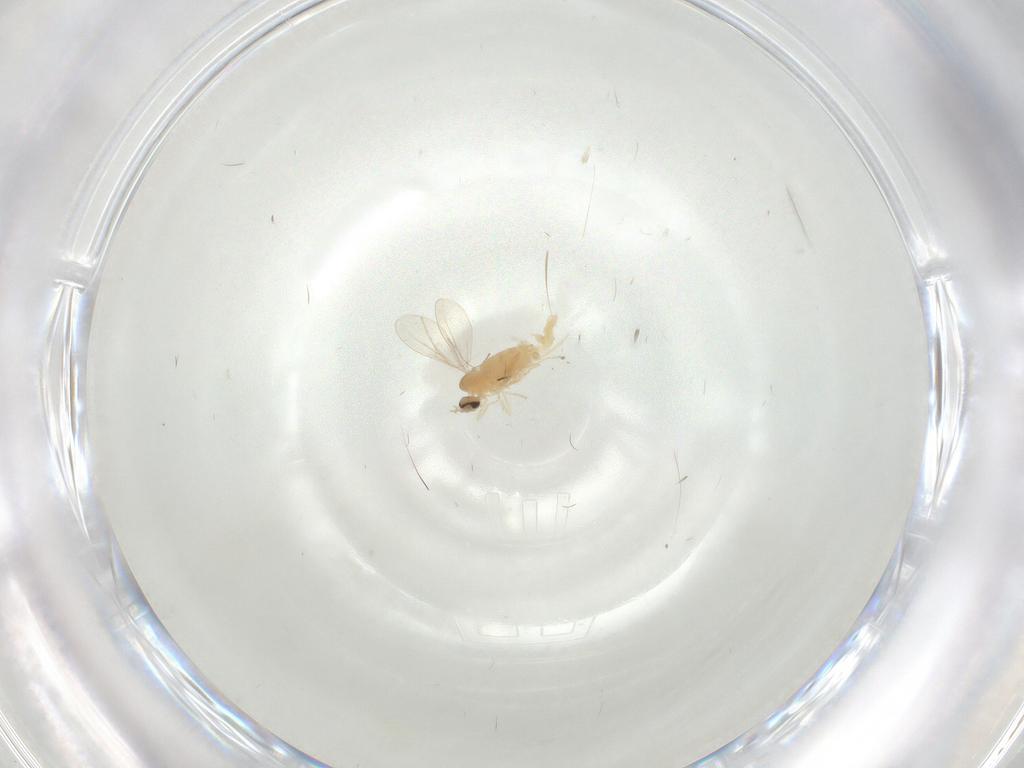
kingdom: Animalia
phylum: Arthropoda
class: Insecta
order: Diptera
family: Cecidomyiidae
